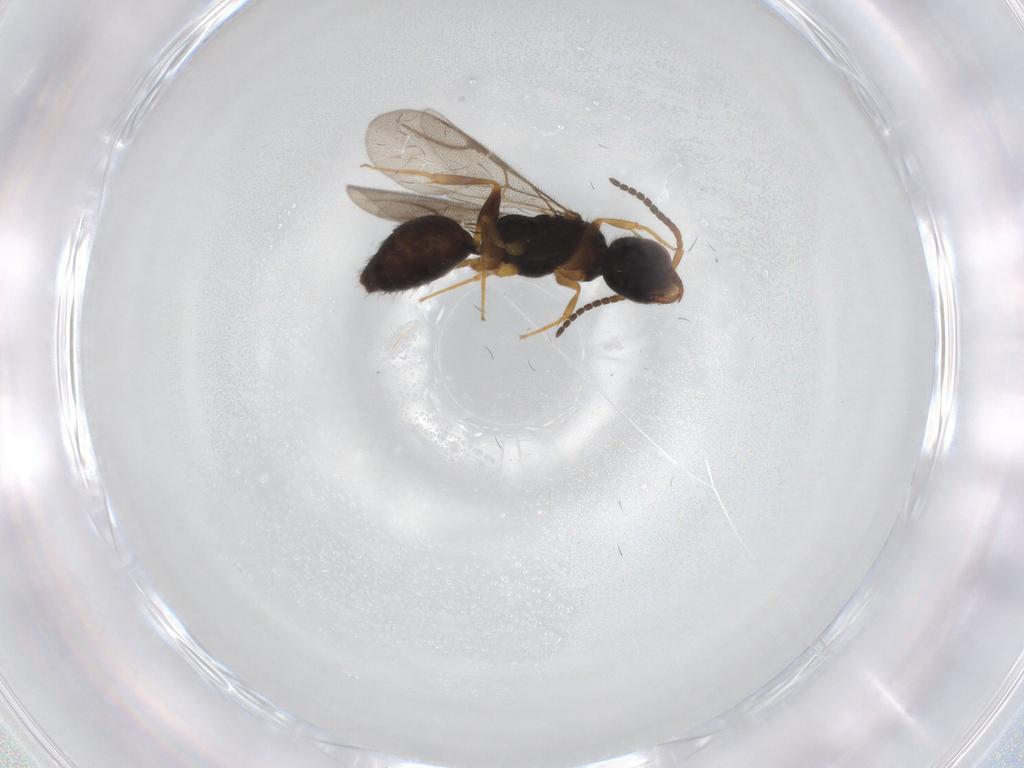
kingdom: Animalia
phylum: Arthropoda
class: Insecta
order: Hymenoptera
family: Bethylidae
